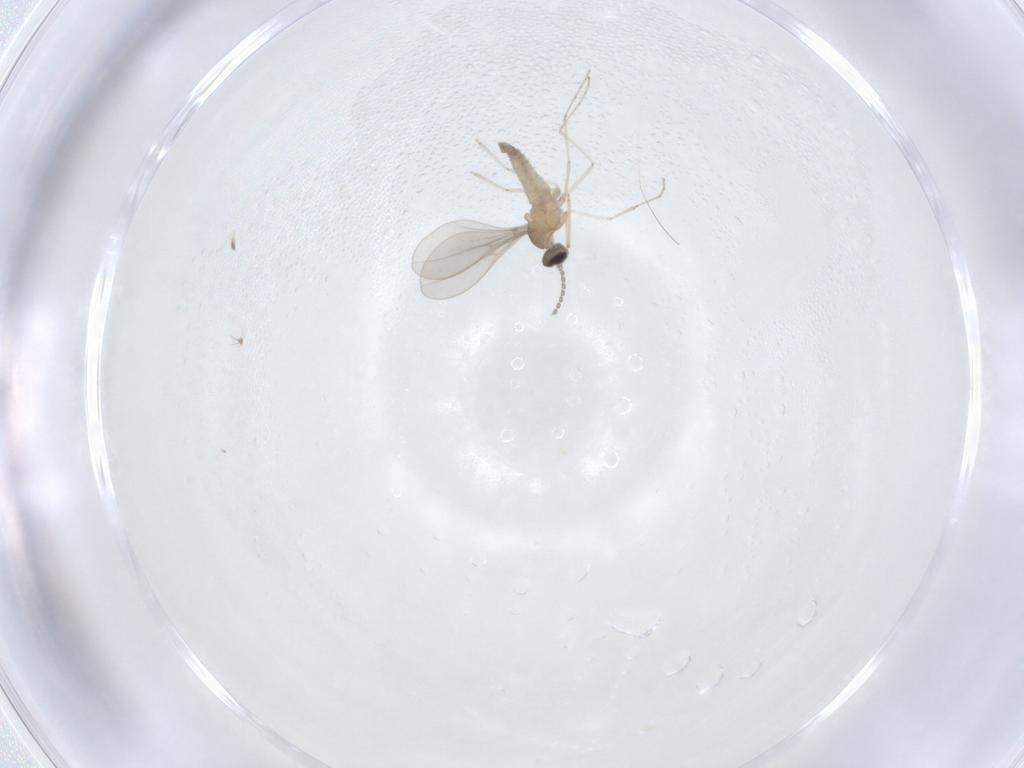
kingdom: Animalia
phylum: Arthropoda
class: Insecta
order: Diptera
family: Ceratopogonidae
